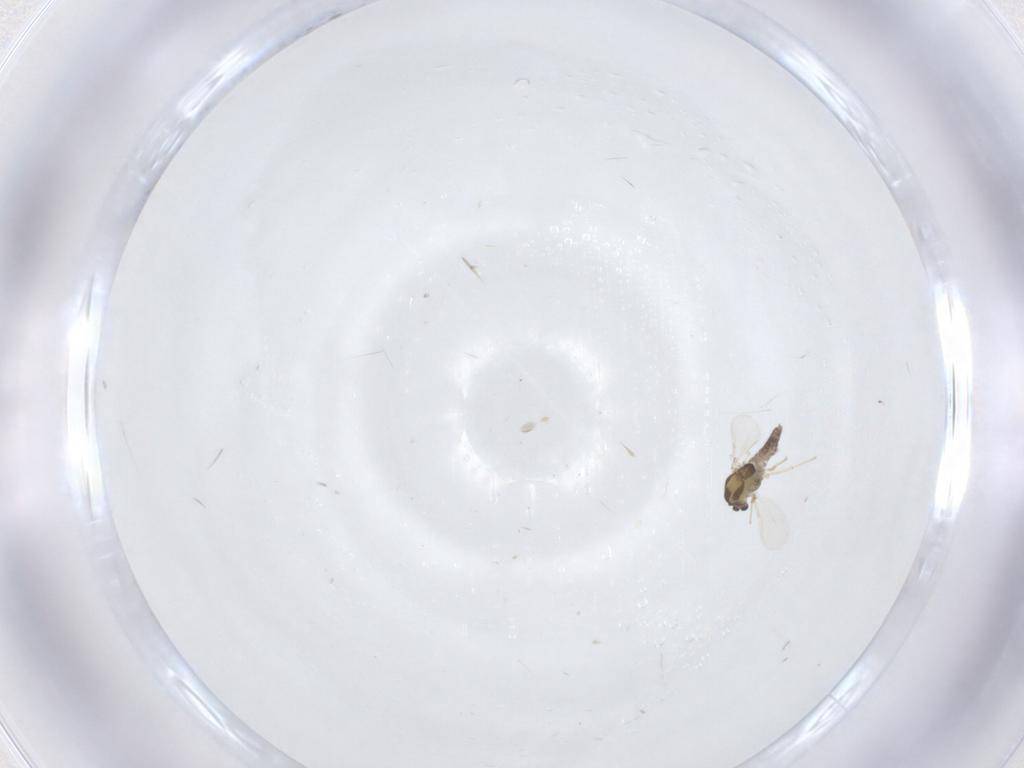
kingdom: Animalia
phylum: Arthropoda
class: Insecta
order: Diptera
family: Chironomidae
